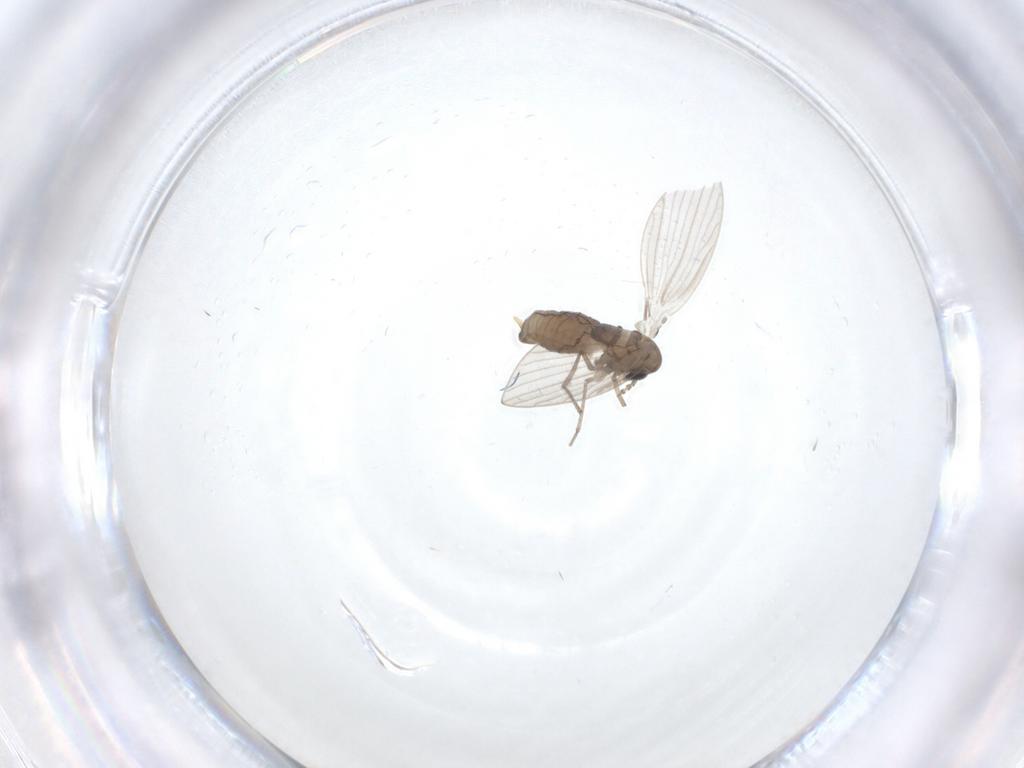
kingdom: Animalia
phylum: Arthropoda
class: Insecta
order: Diptera
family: Psychodidae
